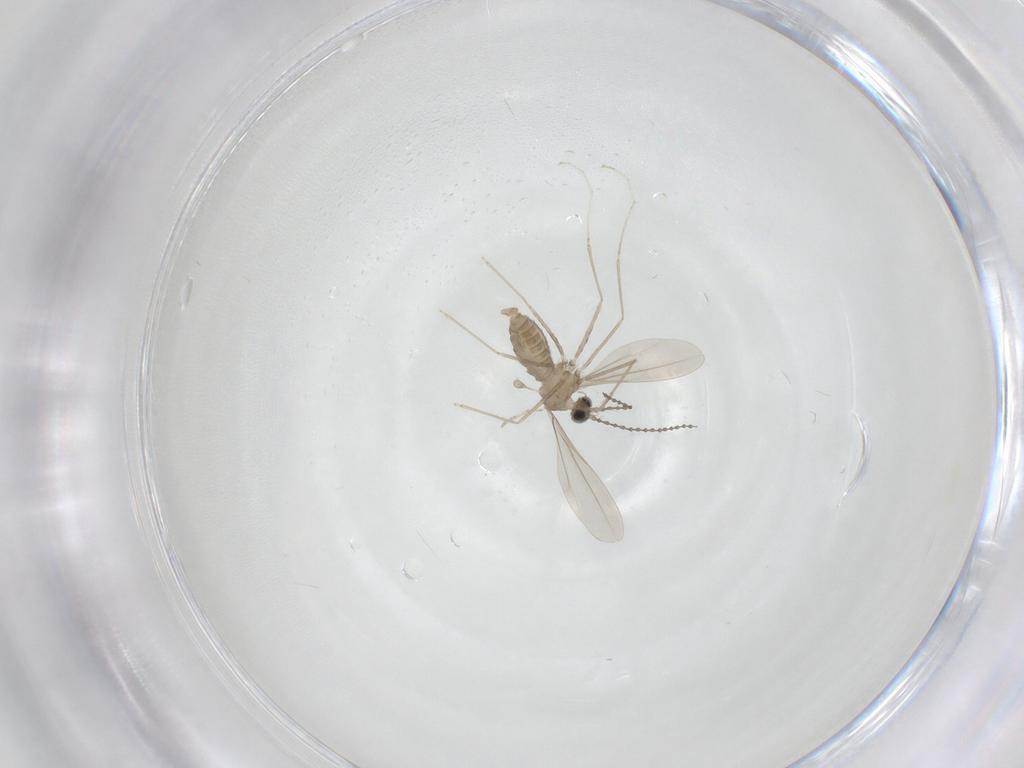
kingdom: Animalia
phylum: Arthropoda
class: Insecta
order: Diptera
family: Cecidomyiidae
